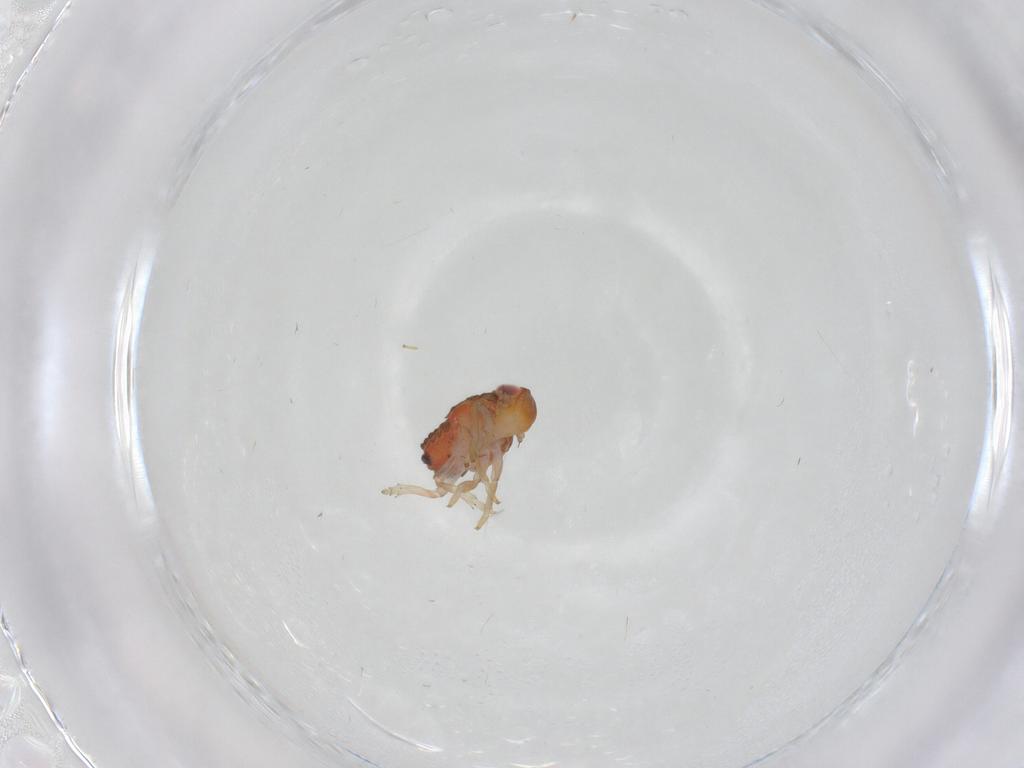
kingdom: Animalia
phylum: Arthropoda
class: Insecta
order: Hemiptera
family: Issidae
